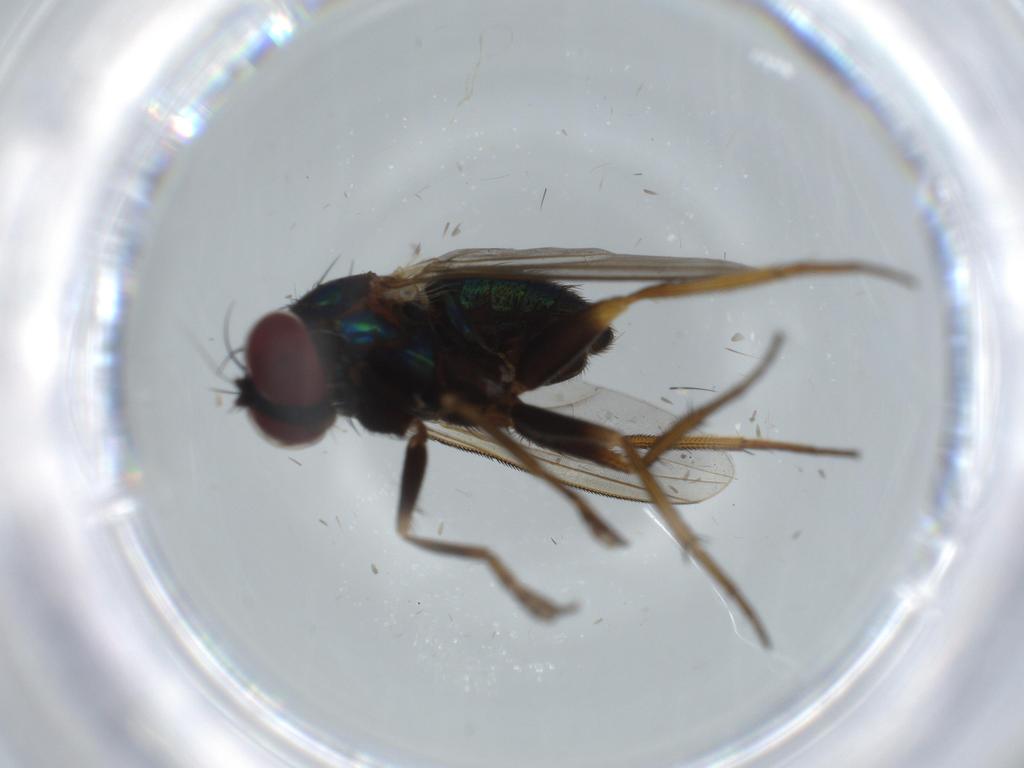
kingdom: Animalia
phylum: Arthropoda
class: Insecta
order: Diptera
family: Dolichopodidae
